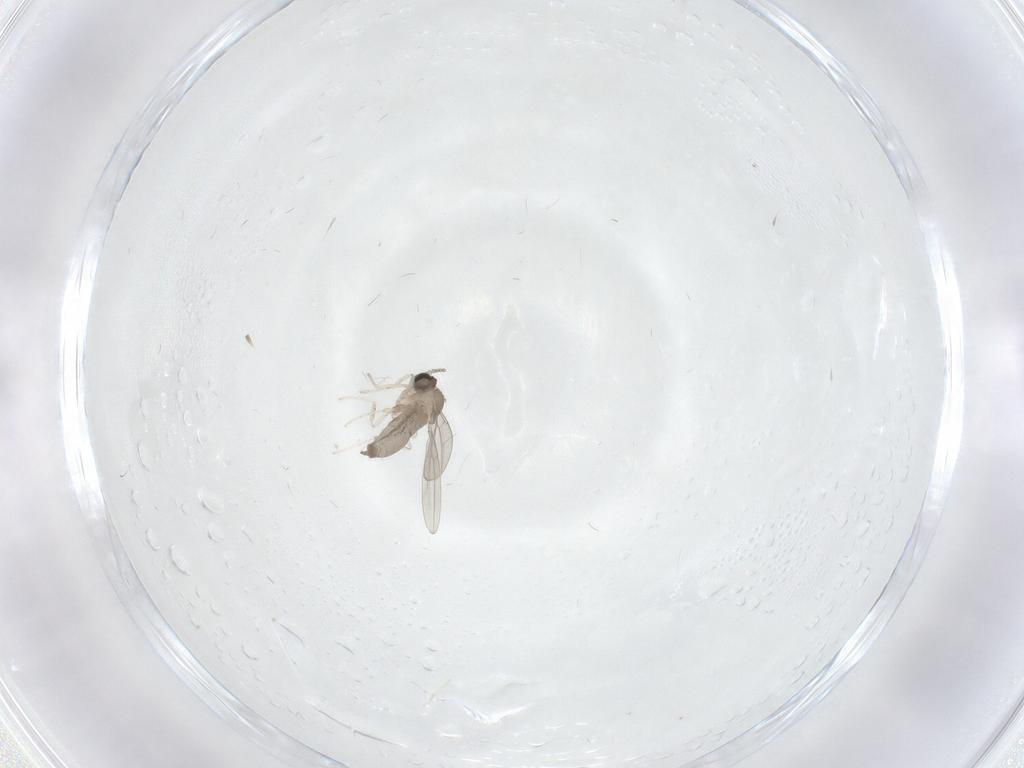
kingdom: Animalia
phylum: Arthropoda
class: Insecta
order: Diptera
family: Cecidomyiidae
